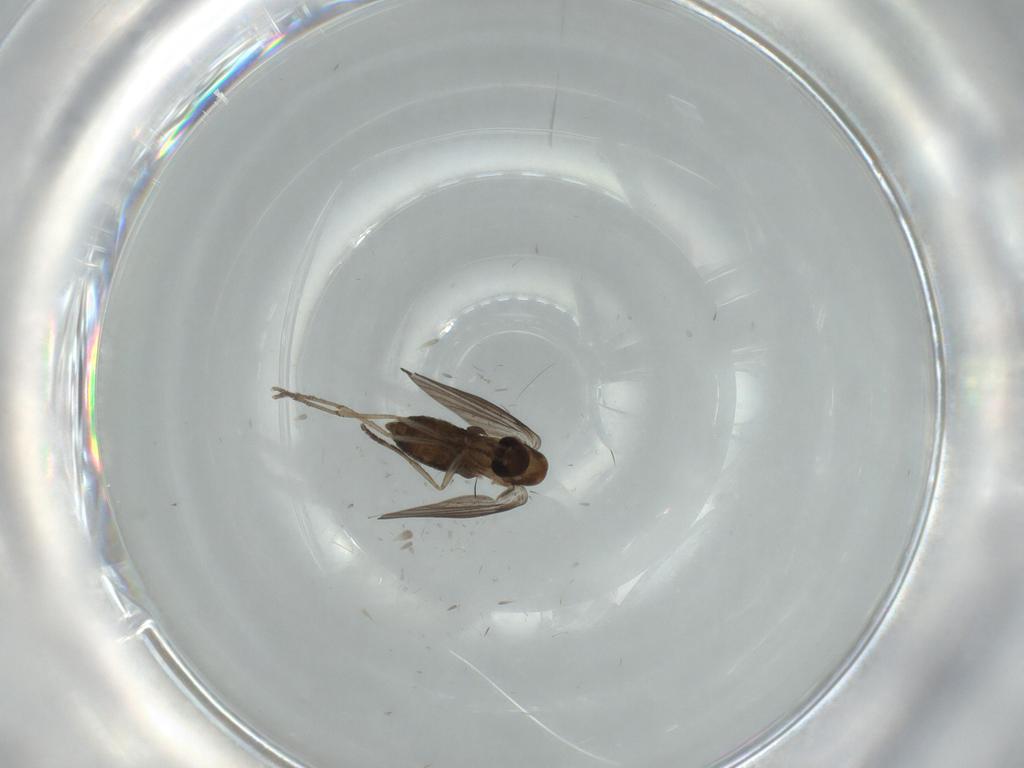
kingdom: Animalia
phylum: Arthropoda
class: Insecta
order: Diptera
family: Psychodidae
